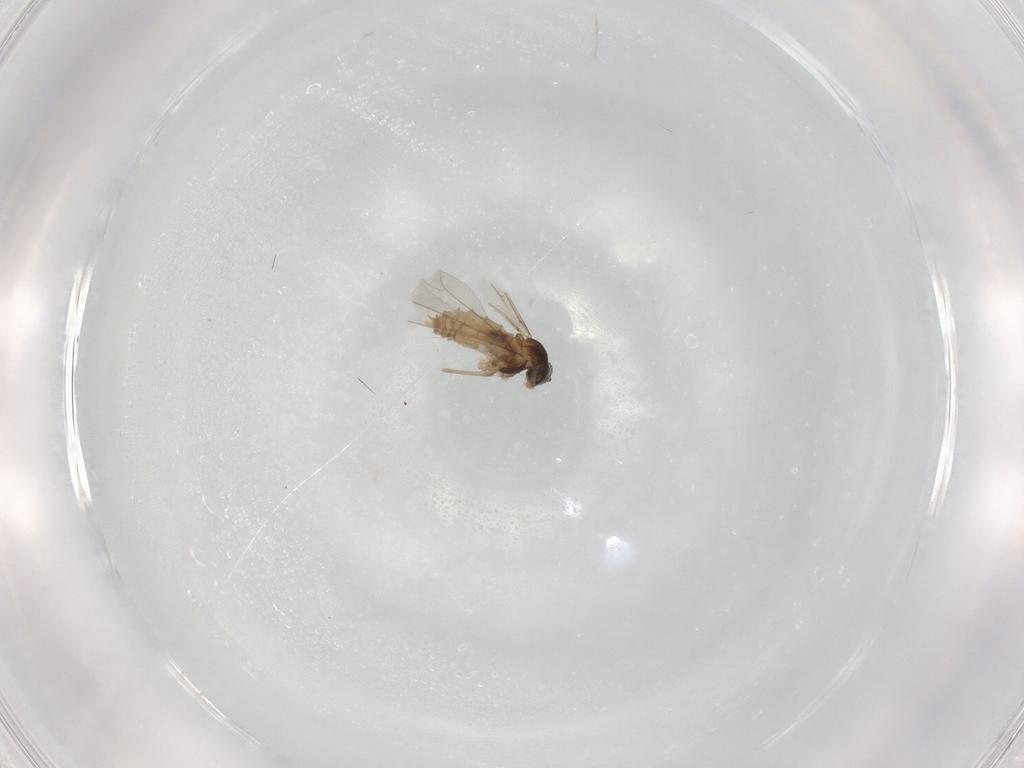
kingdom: Animalia
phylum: Arthropoda
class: Insecta
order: Diptera
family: Cecidomyiidae
